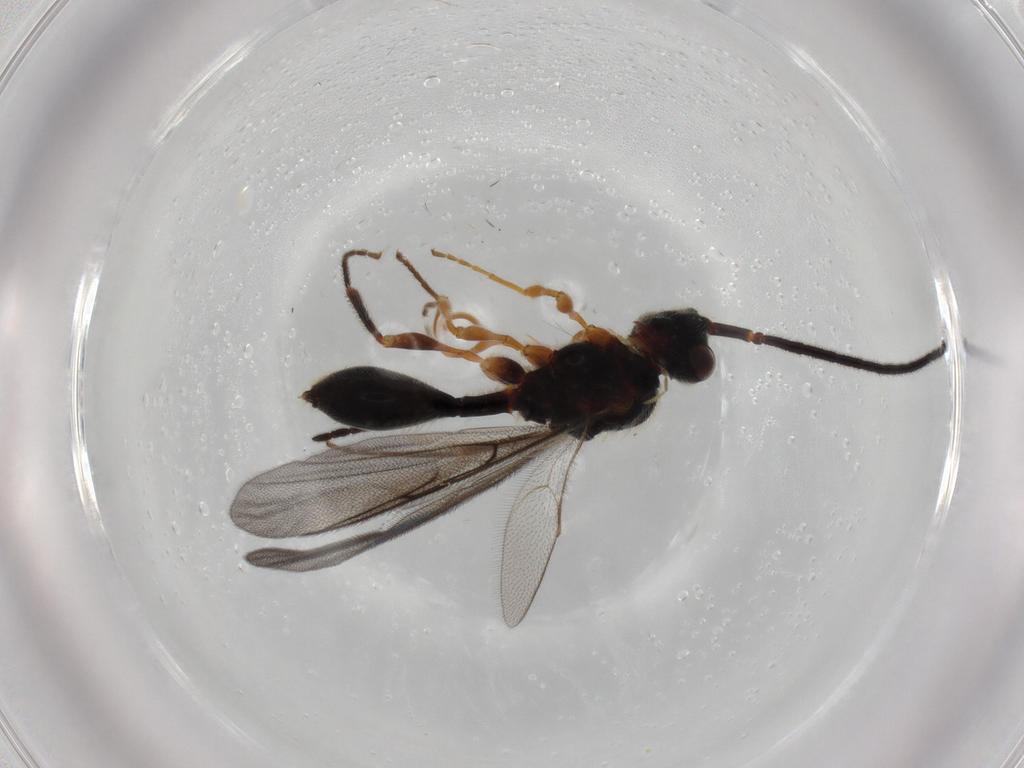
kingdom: Animalia
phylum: Arthropoda
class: Insecta
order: Hymenoptera
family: Diapriidae
